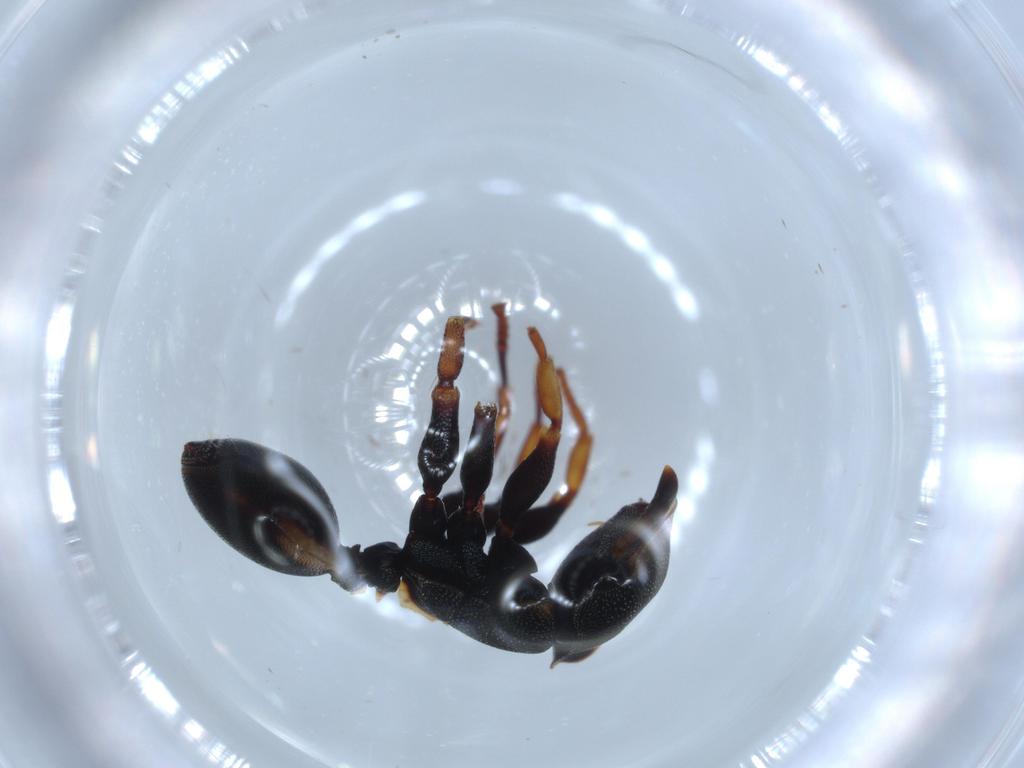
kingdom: Animalia
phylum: Arthropoda
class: Insecta
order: Hymenoptera
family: Formicidae
